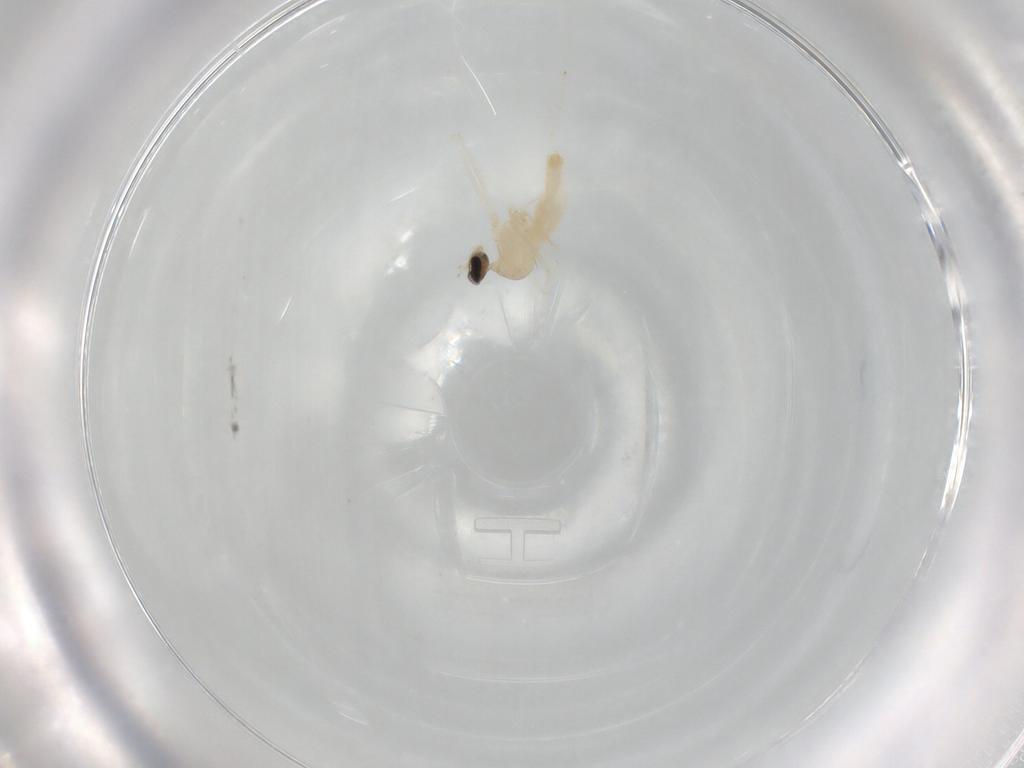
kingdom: Animalia
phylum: Arthropoda
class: Insecta
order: Diptera
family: Cecidomyiidae
